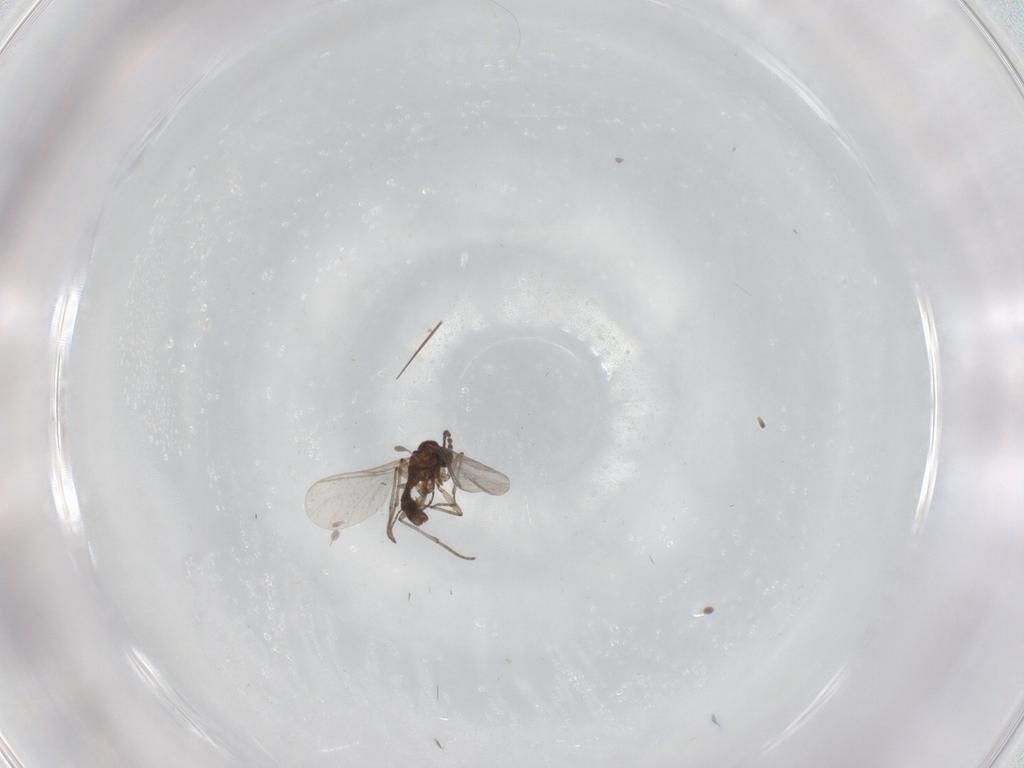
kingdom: Animalia
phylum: Arthropoda
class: Insecta
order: Diptera
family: Sciaridae
